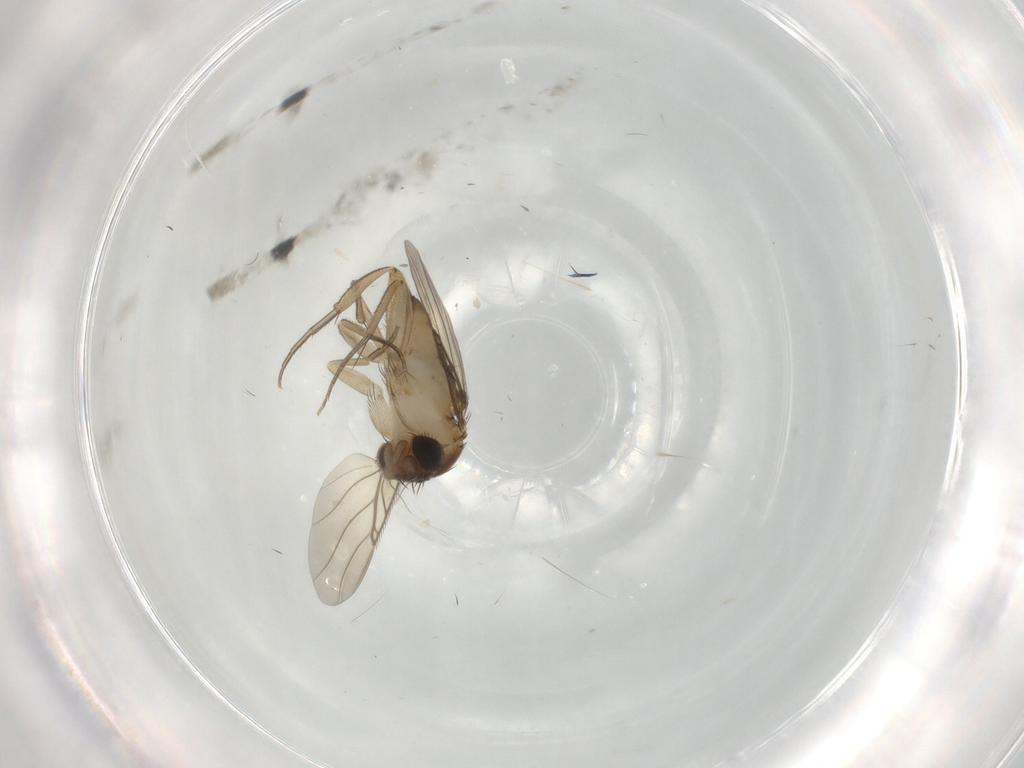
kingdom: Animalia
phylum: Arthropoda
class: Insecta
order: Diptera
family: Phoridae
